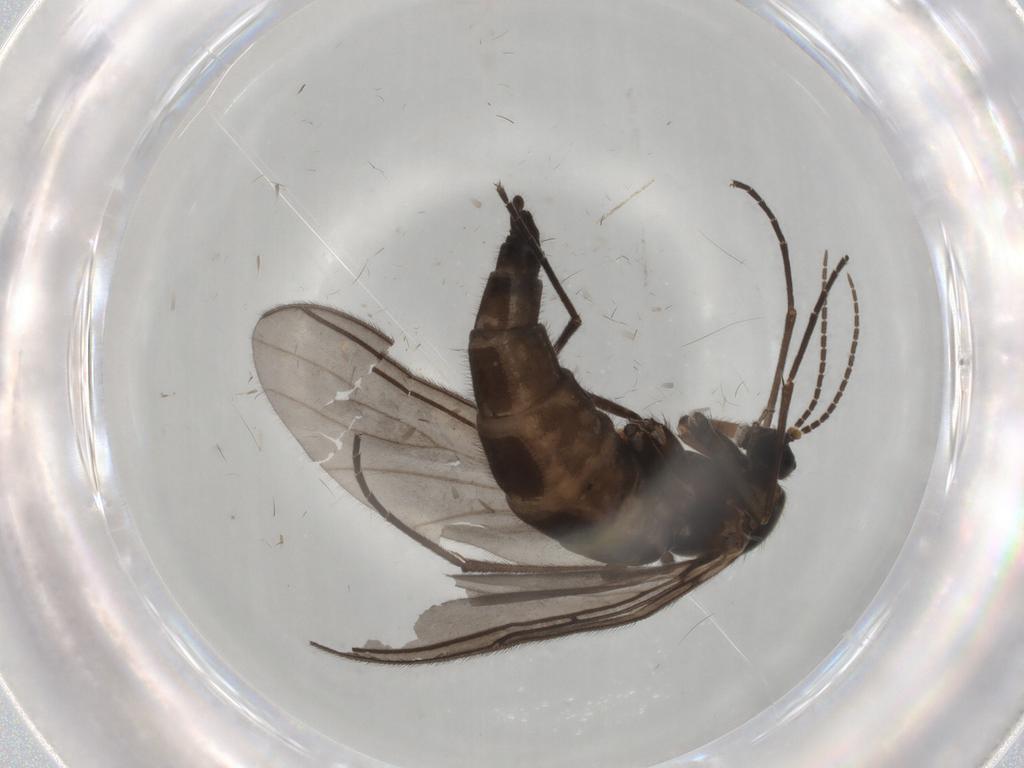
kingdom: Animalia
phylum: Arthropoda
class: Insecta
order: Diptera
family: Sciaridae
